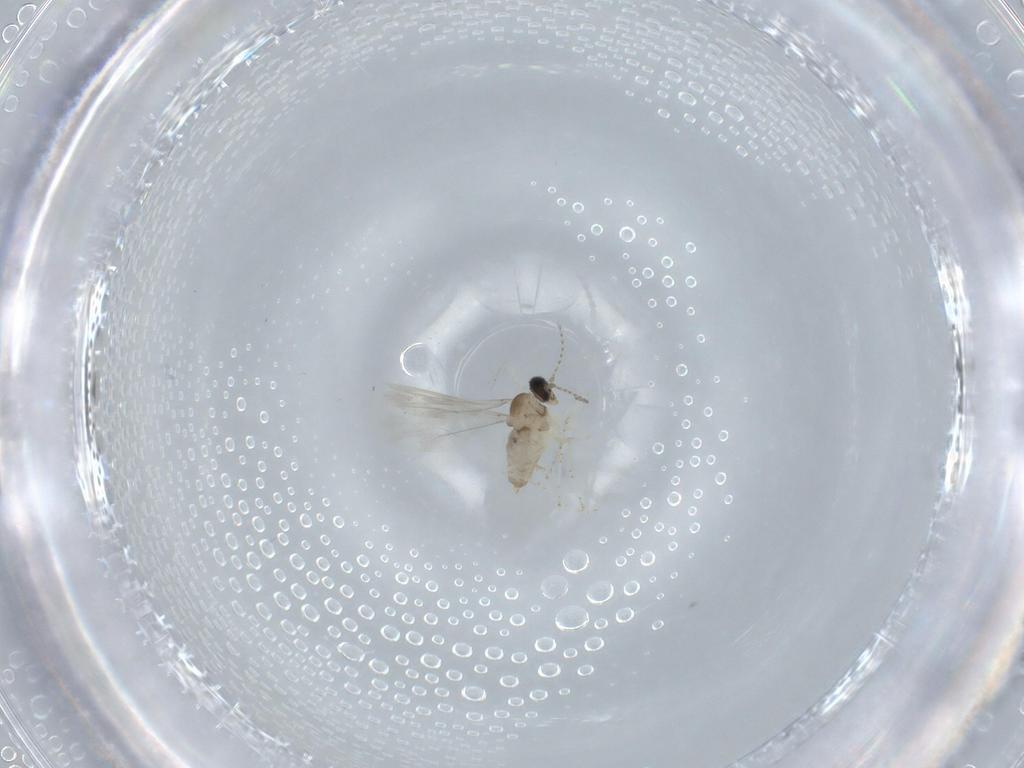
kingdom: Animalia
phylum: Arthropoda
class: Insecta
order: Diptera
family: Cecidomyiidae
